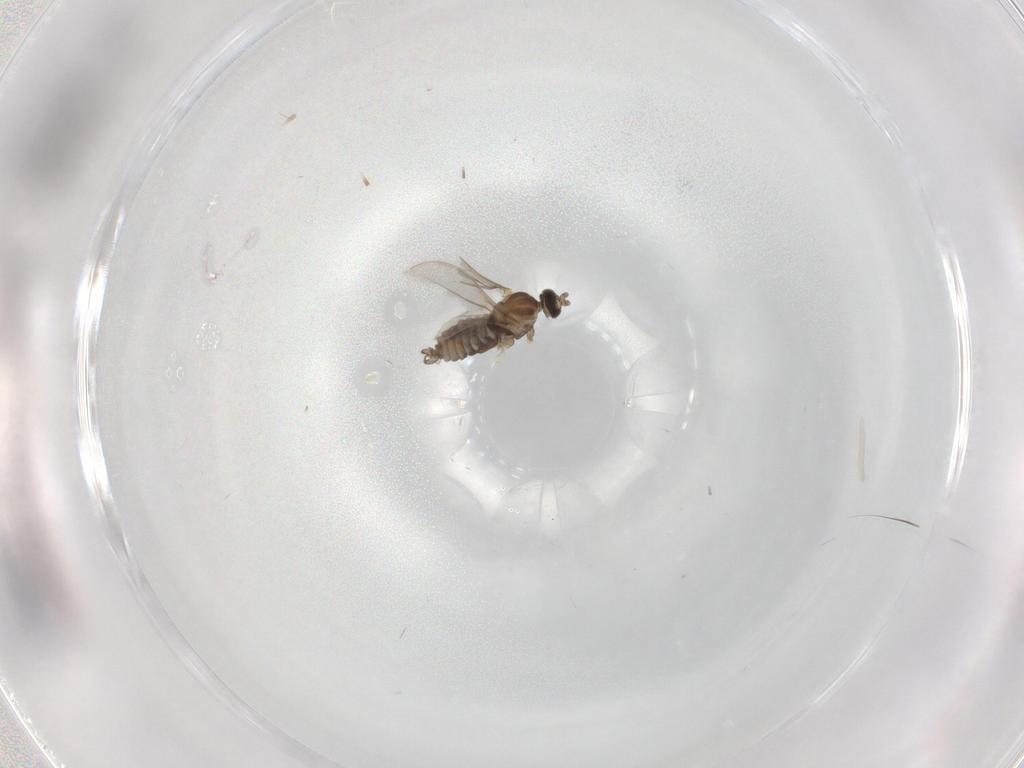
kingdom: Animalia
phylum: Arthropoda
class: Insecta
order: Diptera
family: Cecidomyiidae
